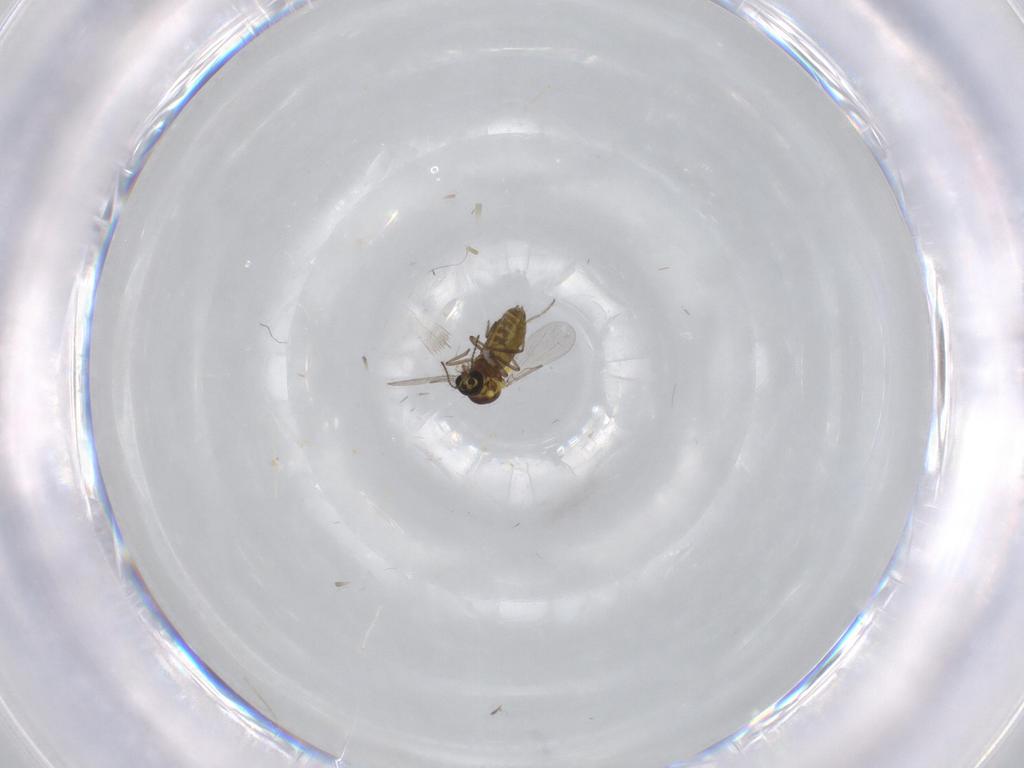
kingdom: Animalia
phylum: Arthropoda
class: Insecta
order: Diptera
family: Ceratopogonidae
